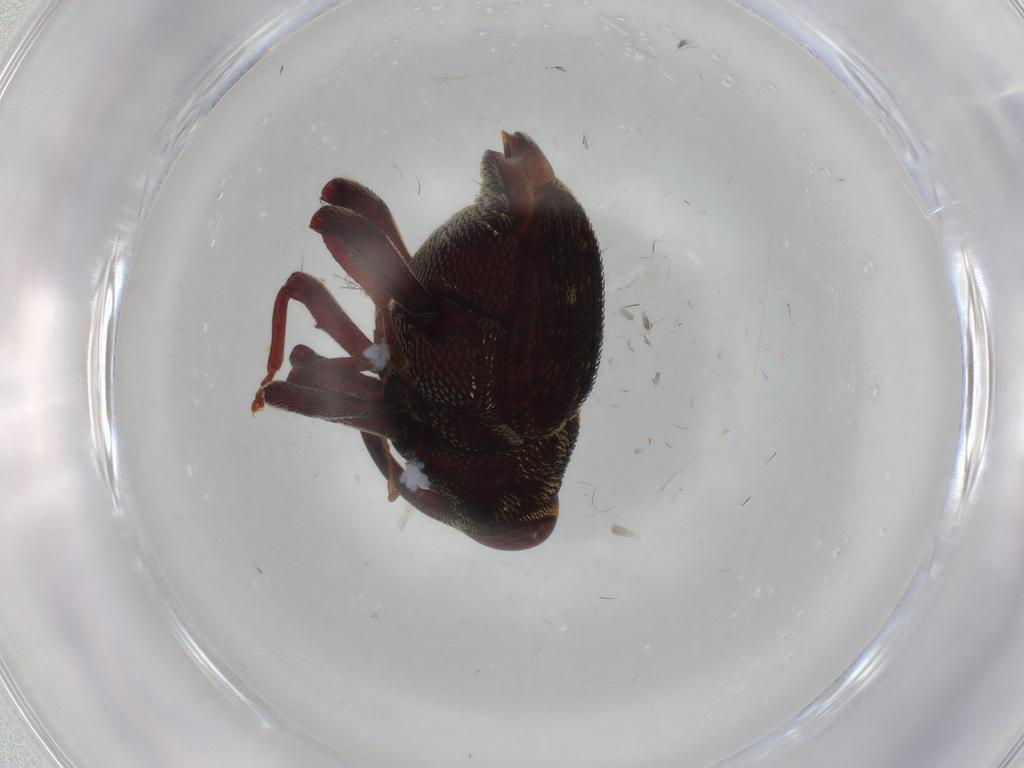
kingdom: Animalia
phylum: Arthropoda
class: Insecta
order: Coleoptera
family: Curculionidae
